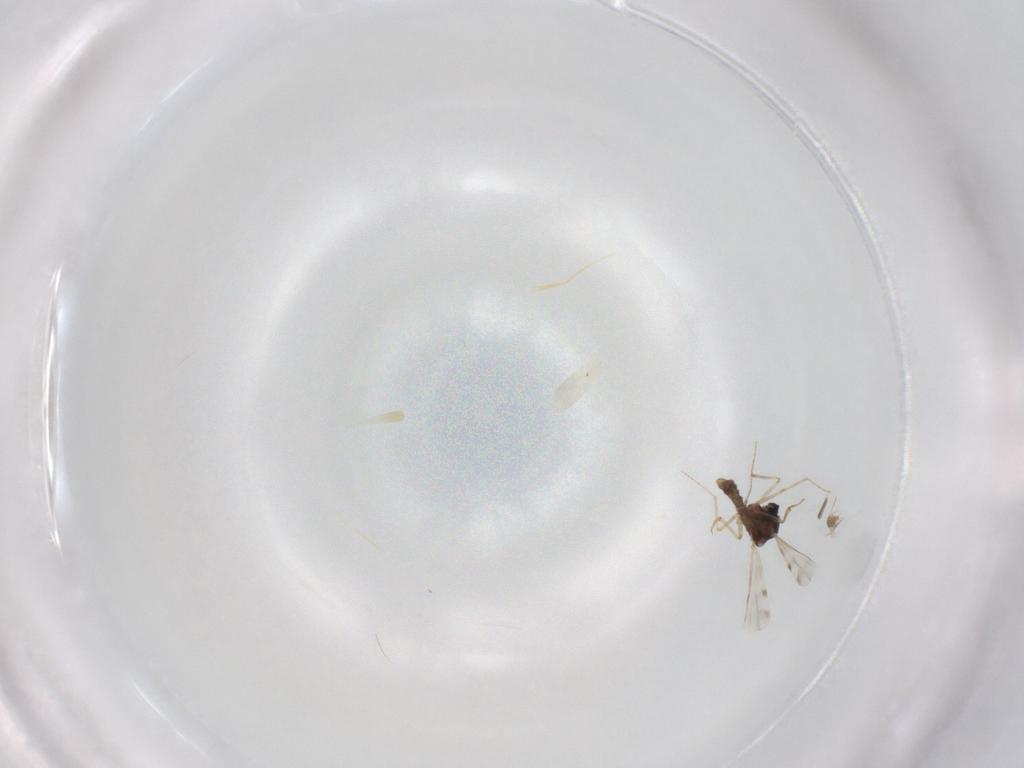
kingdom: Animalia
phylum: Arthropoda
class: Insecta
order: Diptera
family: Ceratopogonidae
